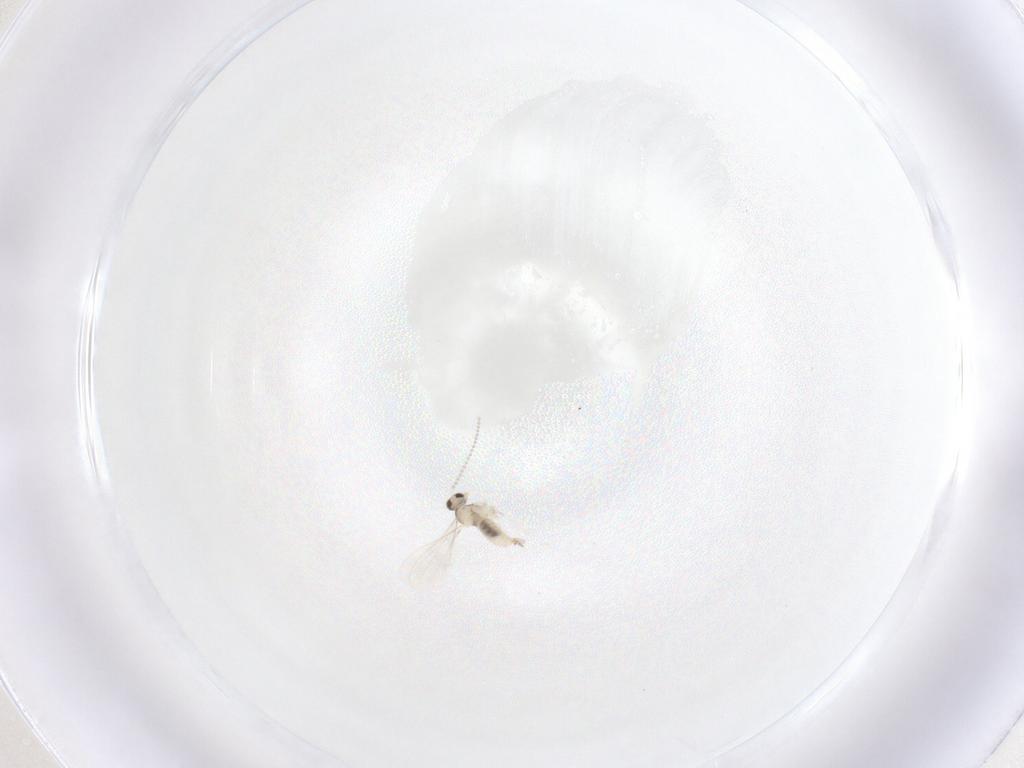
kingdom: Animalia
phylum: Arthropoda
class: Insecta
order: Diptera
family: Cecidomyiidae
